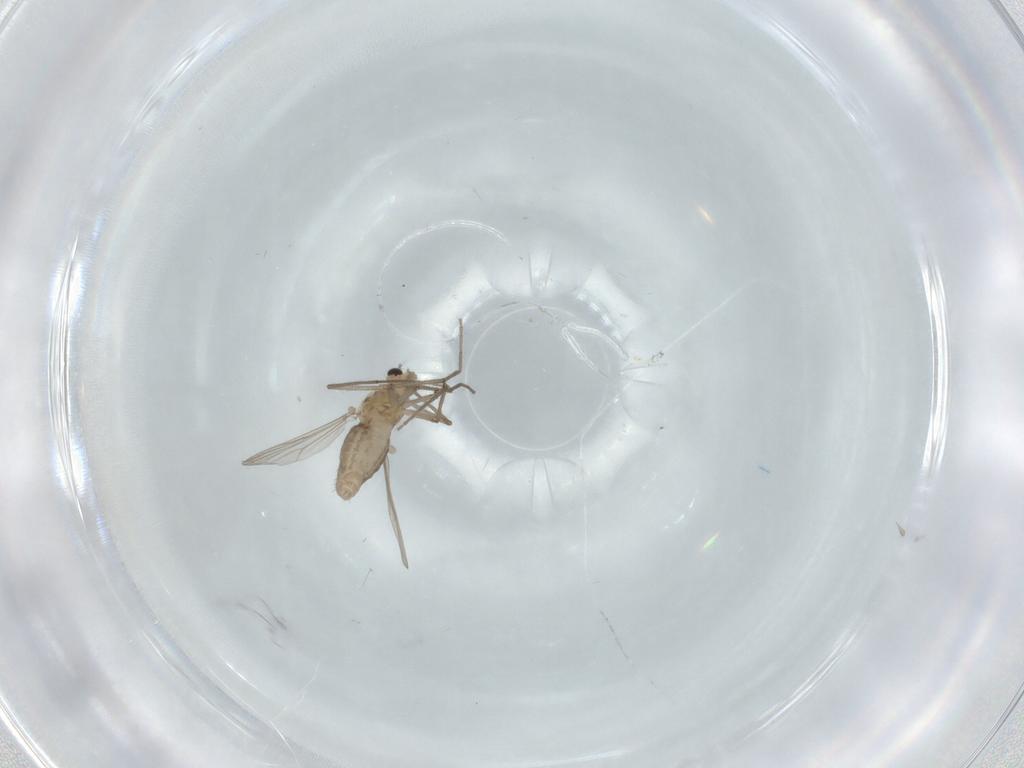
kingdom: Animalia
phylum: Arthropoda
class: Insecta
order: Diptera
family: Chironomidae
